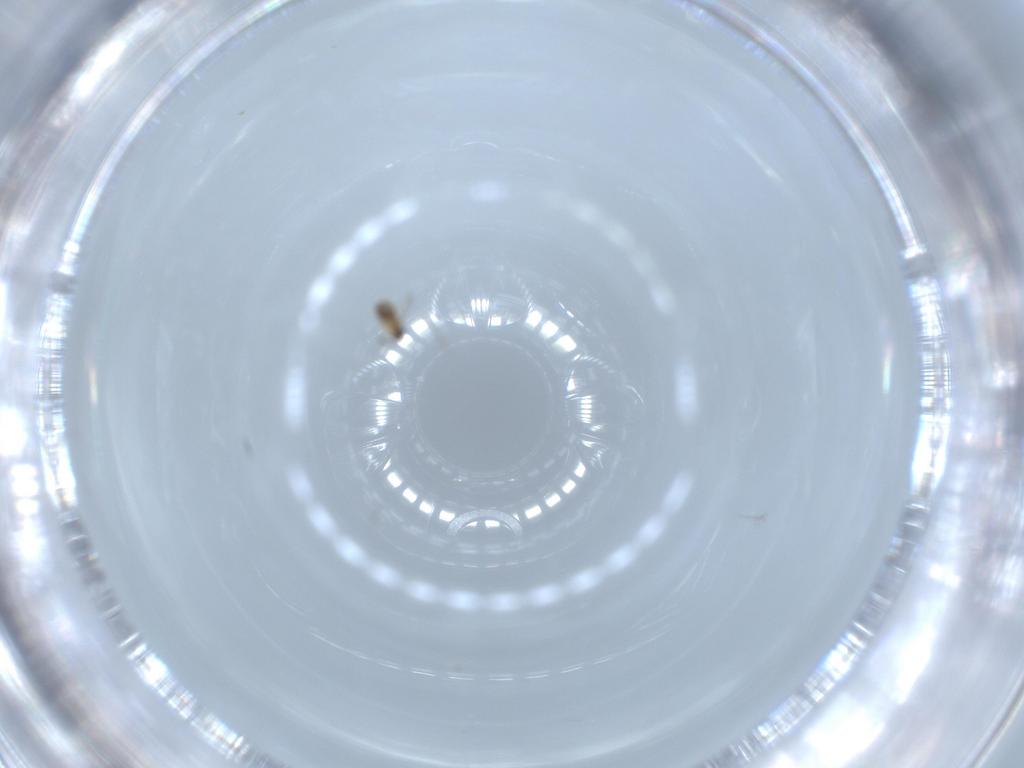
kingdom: Animalia
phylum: Arthropoda
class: Insecta
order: Hymenoptera
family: Mymaridae
